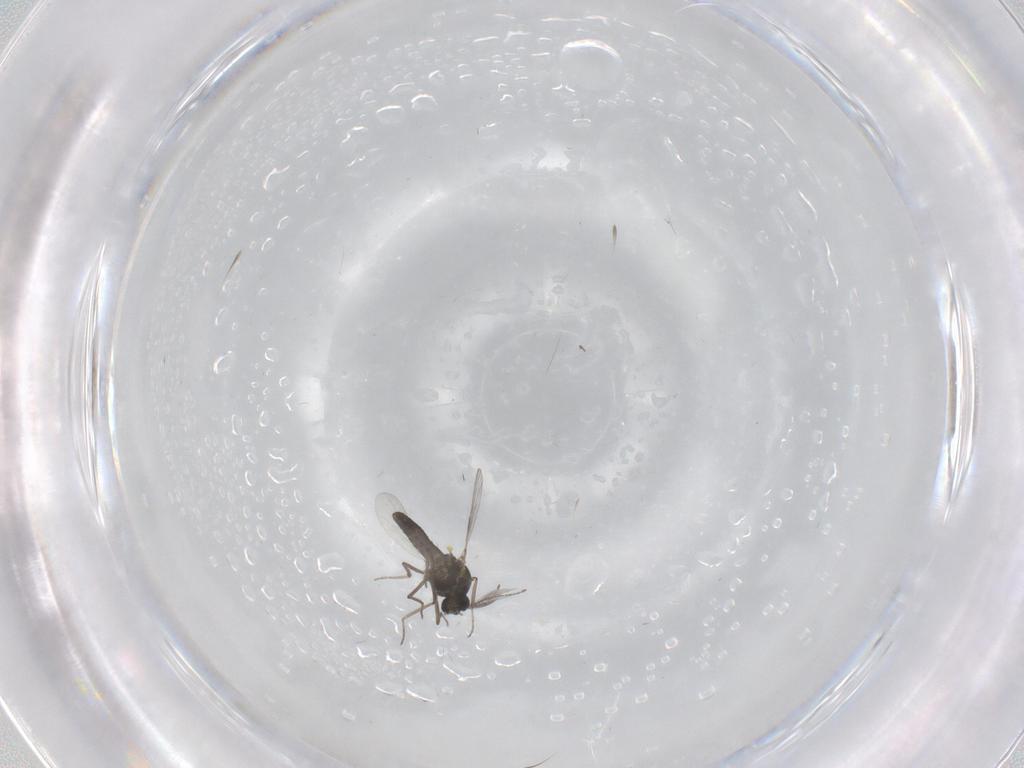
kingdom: Animalia
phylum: Arthropoda
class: Insecta
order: Diptera
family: Ceratopogonidae
